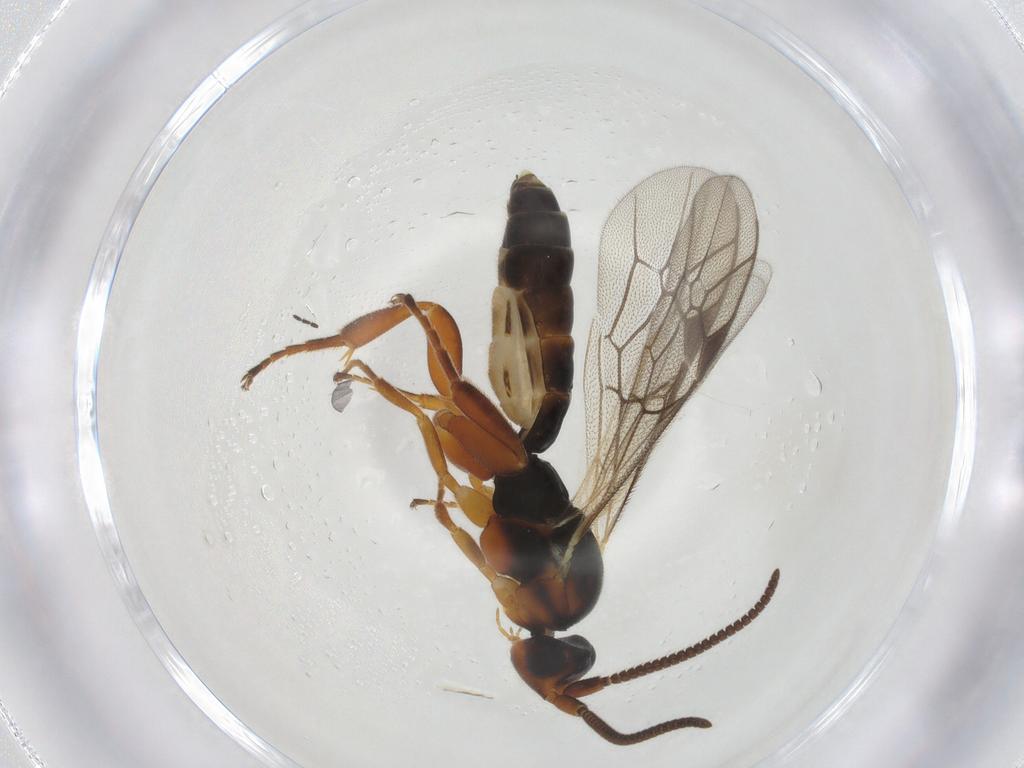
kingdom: Animalia
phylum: Arthropoda
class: Insecta
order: Hymenoptera
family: Ichneumonidae
